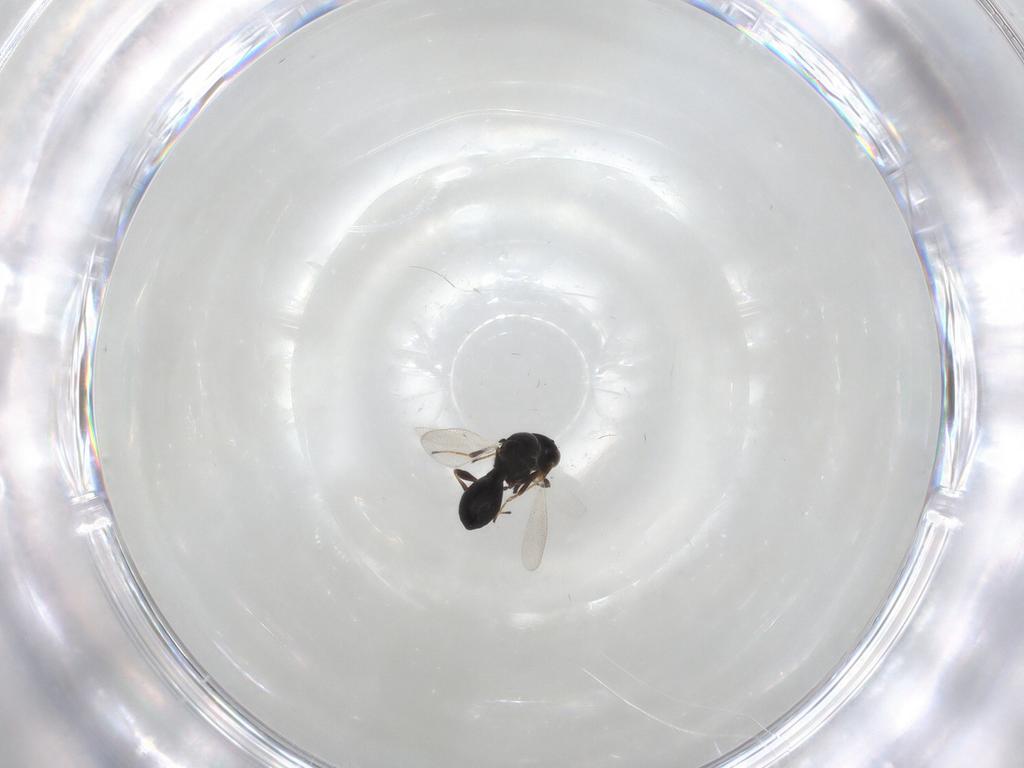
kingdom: Animalia
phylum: Arthropoda
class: Insecta
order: Hymenoptera
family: Platygastridae
